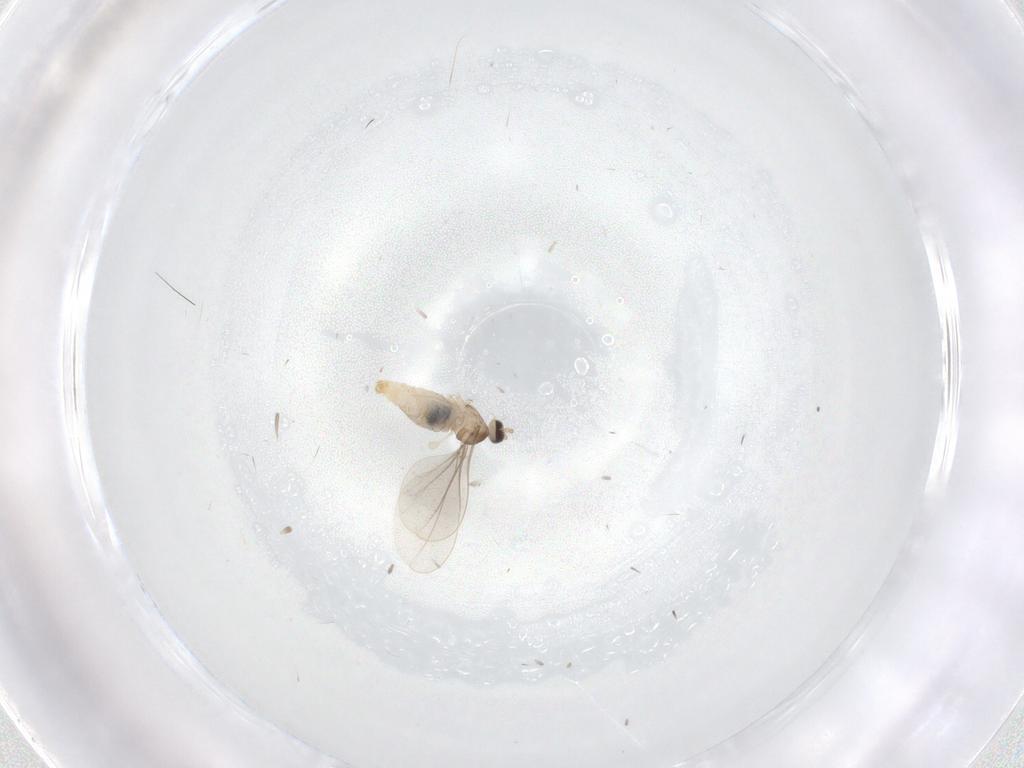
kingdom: Animalia
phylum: Arthropoda
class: Insecta
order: Diptera
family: Cecidomyiidae
